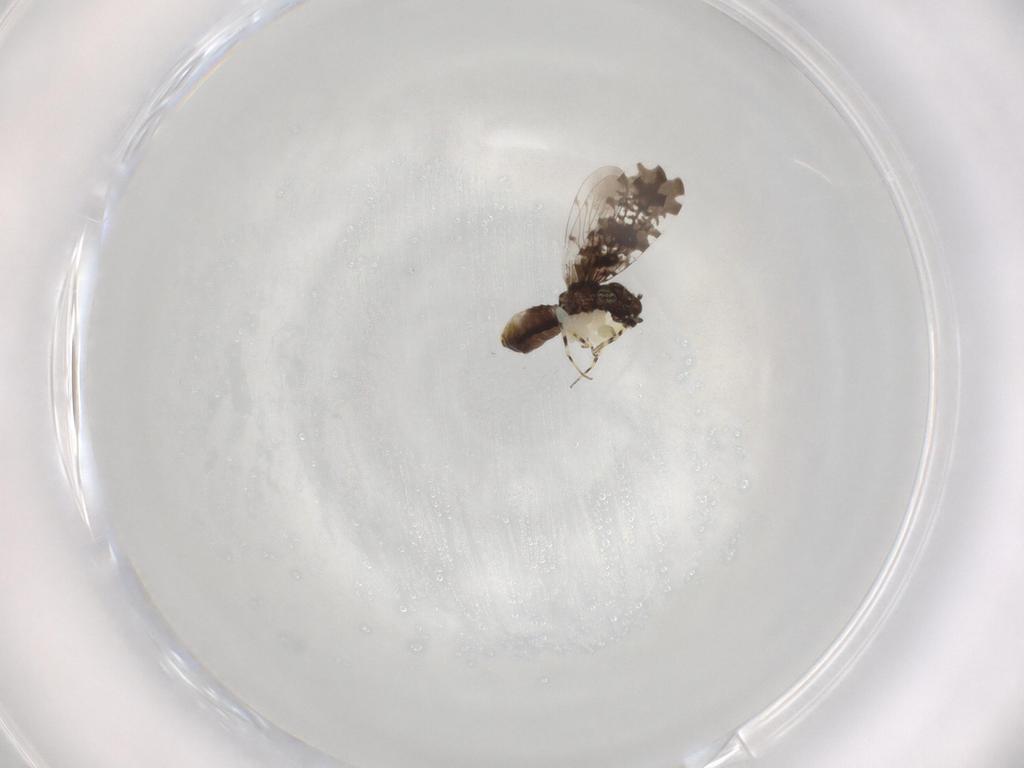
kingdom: Animalia
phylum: Arthropoda
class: Insecta
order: Psocodea
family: Psoquillidae
